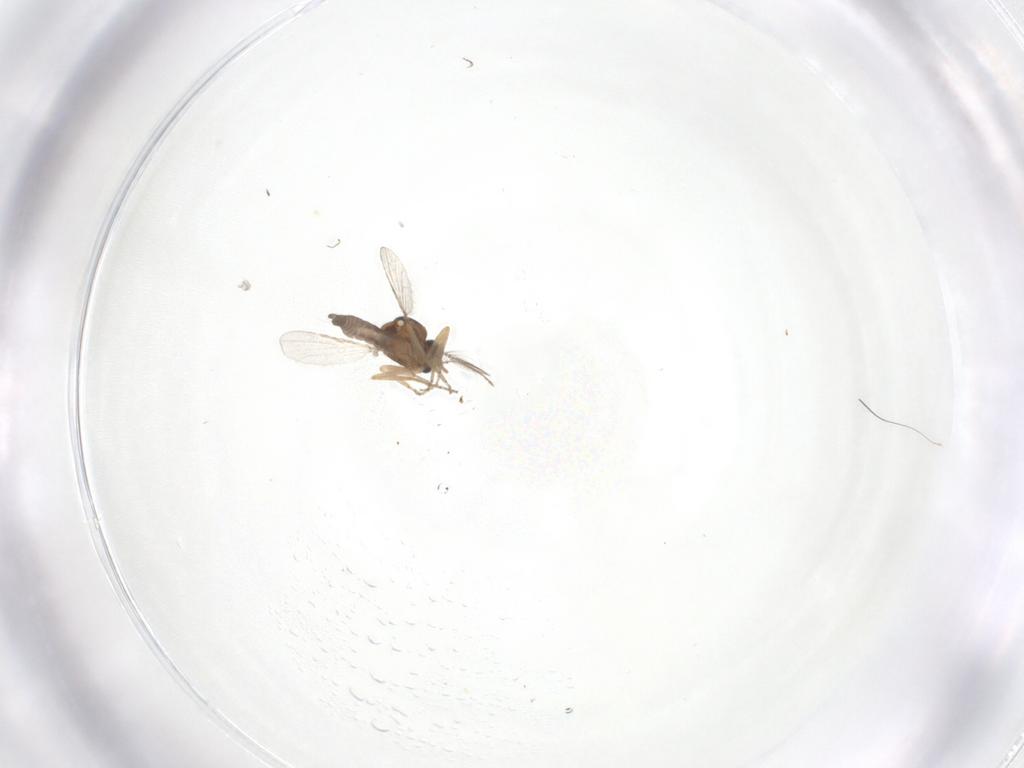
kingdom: Animalia
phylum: Arthropoda
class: Insecta
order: Diptera
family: Ceratopogonidae
